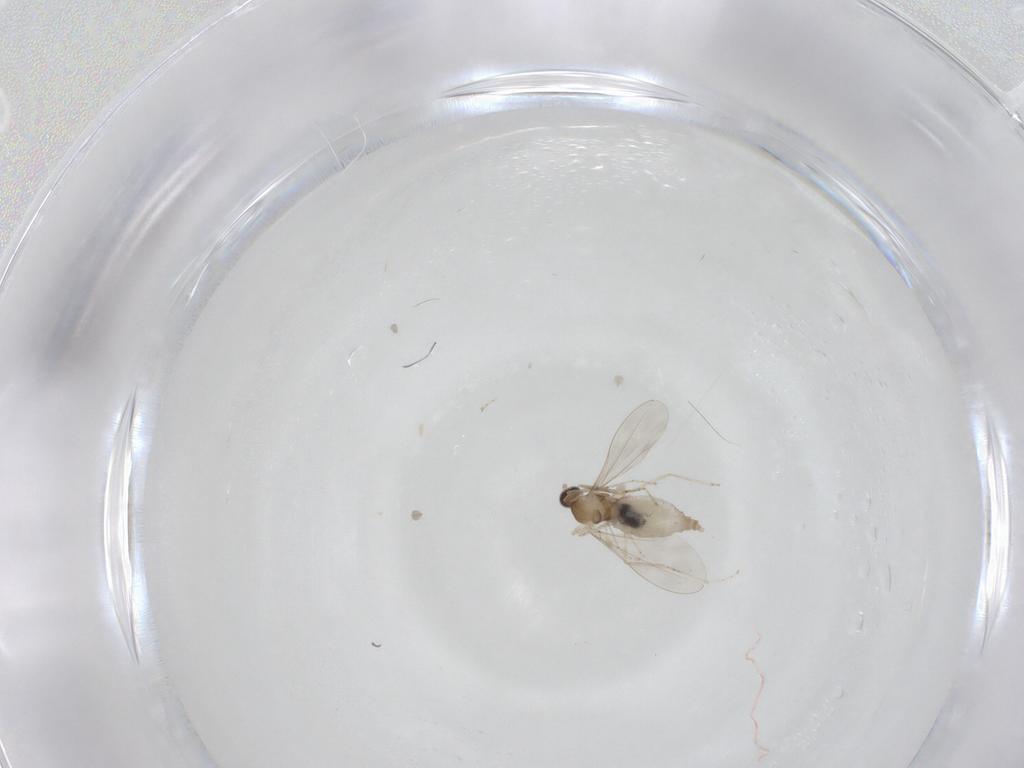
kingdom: Animalia
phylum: Arthropoda
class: Insecta
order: Diptera
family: Cecidomyiidae
